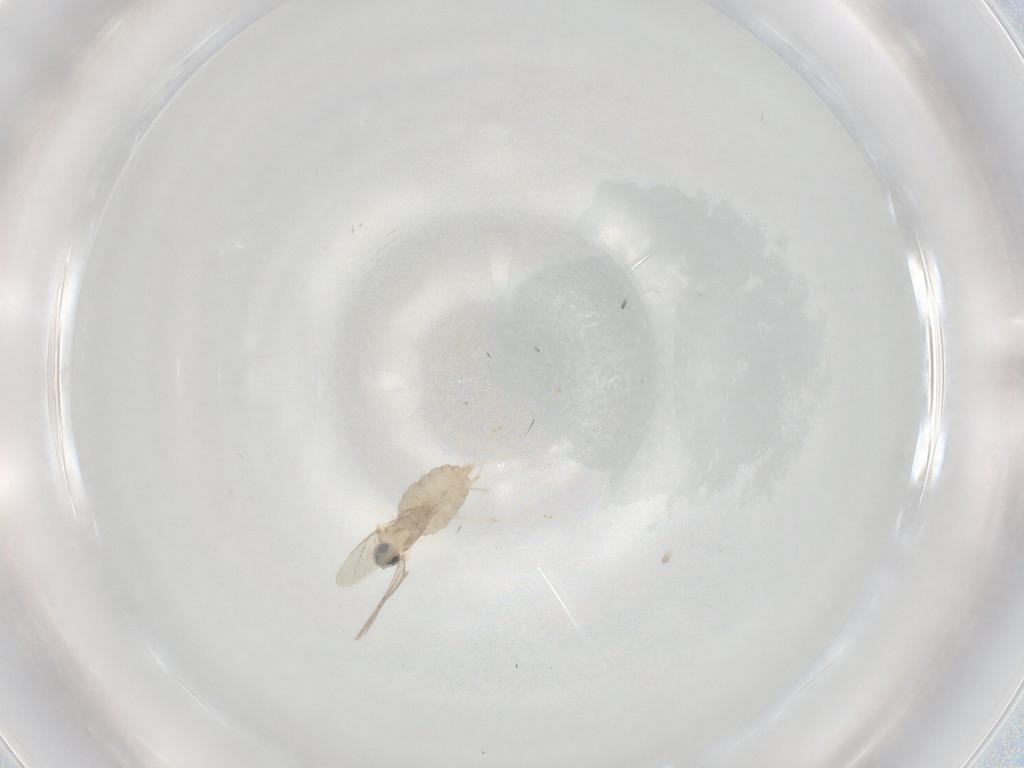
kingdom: Animalia
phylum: Arthropoda
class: Insecta
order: Diptera
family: Cecidomyiidae
